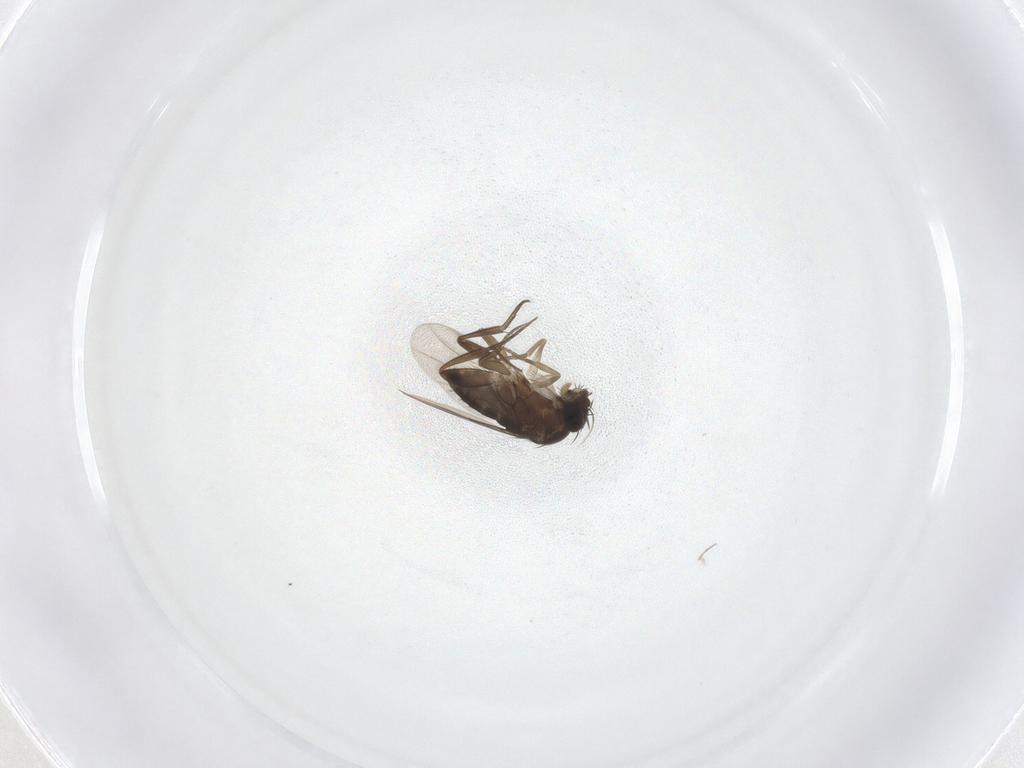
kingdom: Animalia
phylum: Arthropoda
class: Insecta
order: Diptera
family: Phoridae
